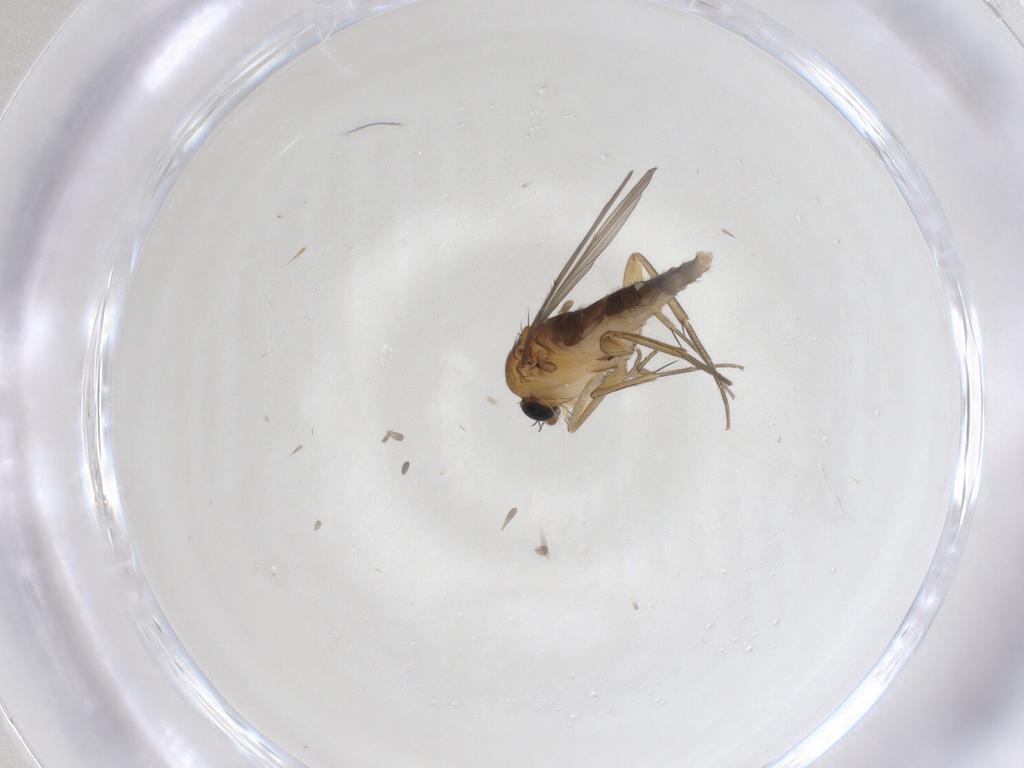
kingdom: Animalia
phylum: Arthropoda
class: Insecta
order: Diptera
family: Phoridae
